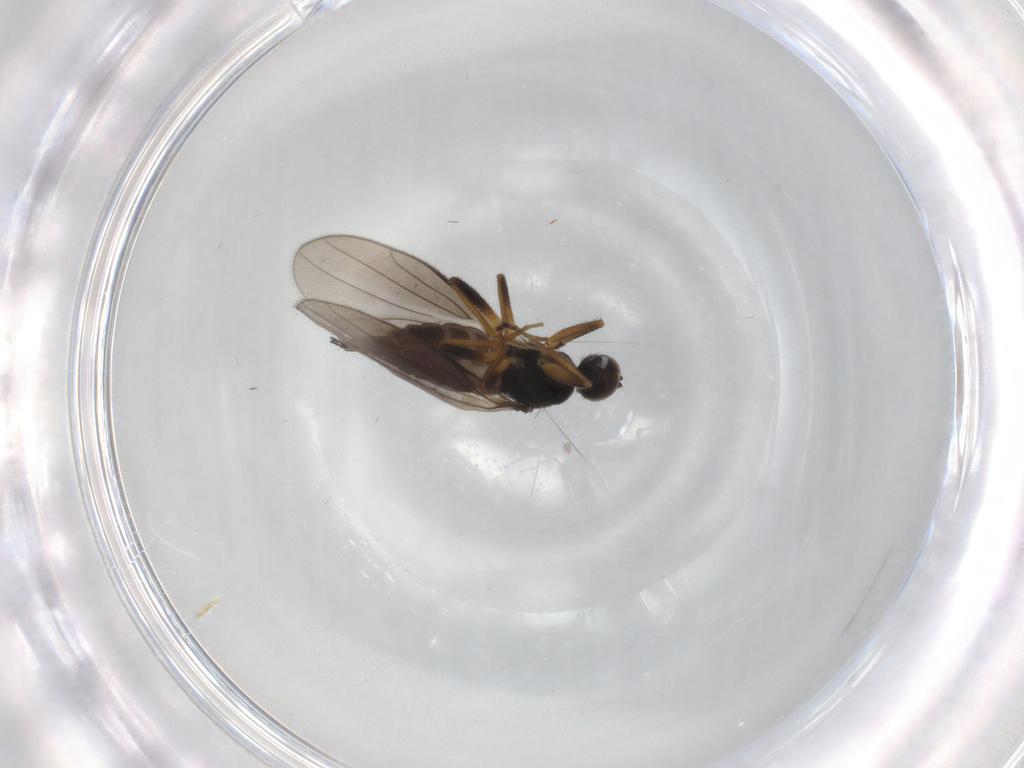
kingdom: Animalia
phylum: Arthropoda
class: Insecta
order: Diptera
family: Hybotidae
